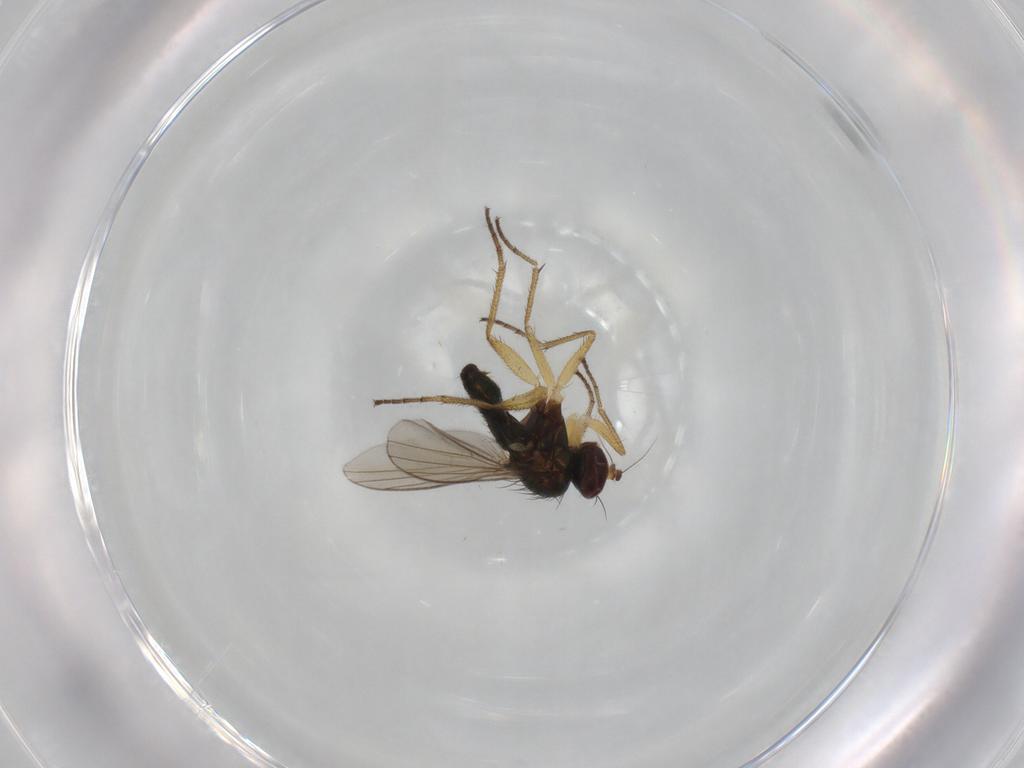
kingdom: Animalia
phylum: Arthropoda
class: Insecta
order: Diptera
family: Dolichopodidae
